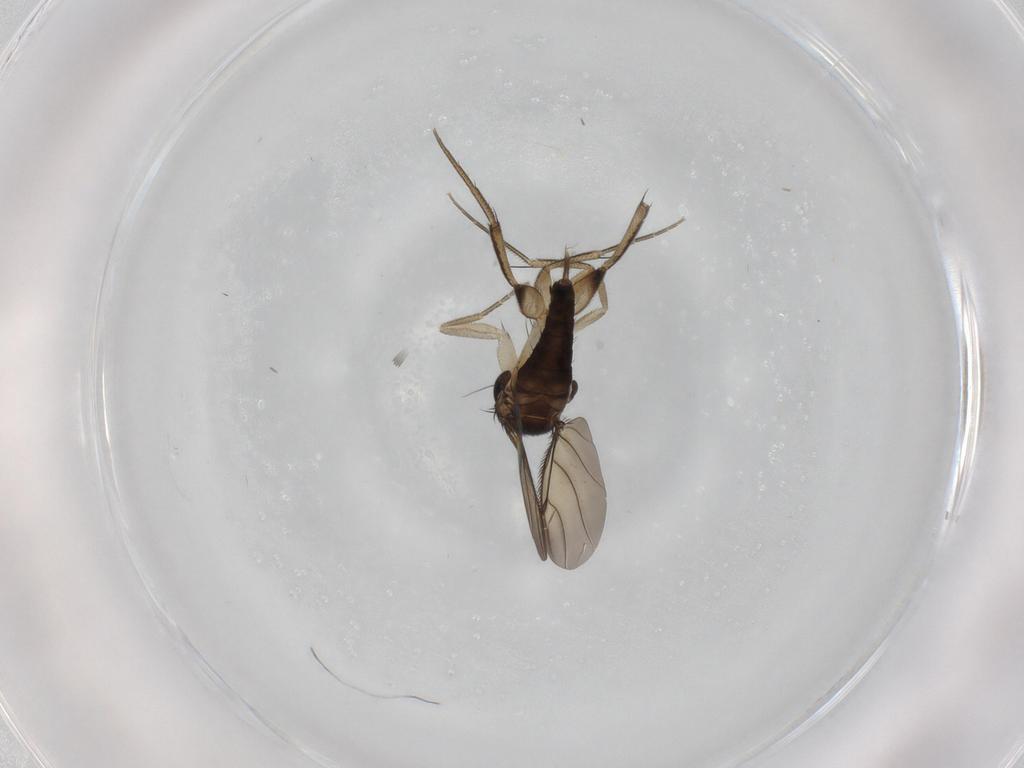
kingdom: Animalia
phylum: Arthropoda
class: Insecta
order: Diptera
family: Phoridae
